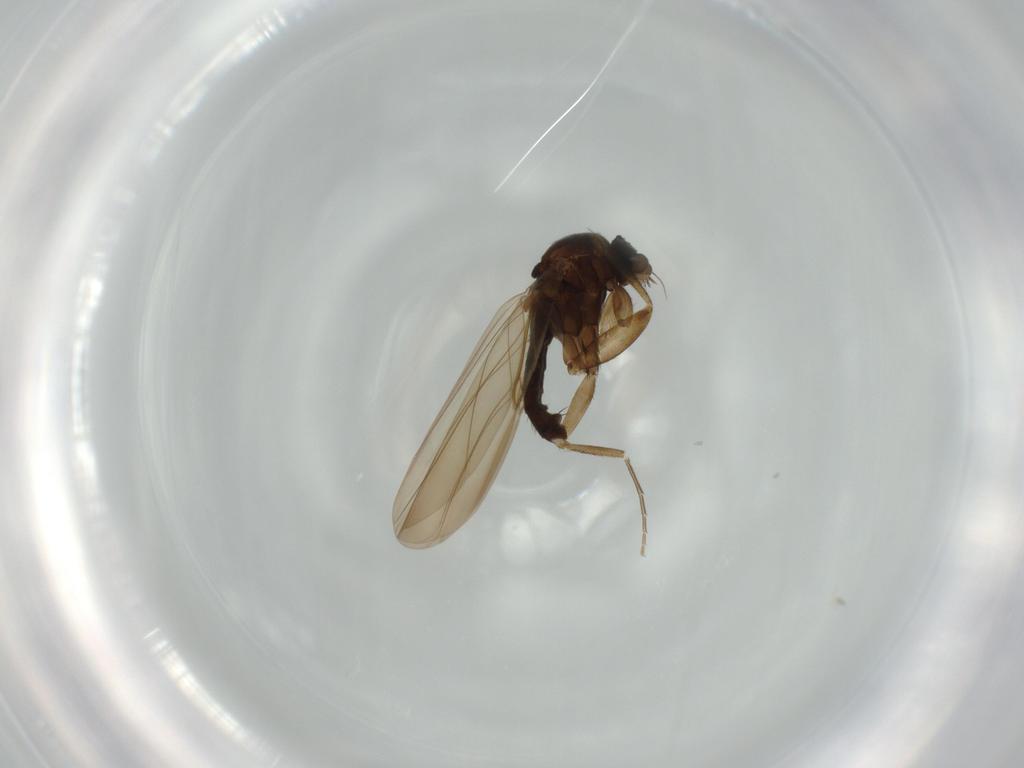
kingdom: Animalia
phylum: Arthropoda
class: Insecta
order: Diptera
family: Phoridae
